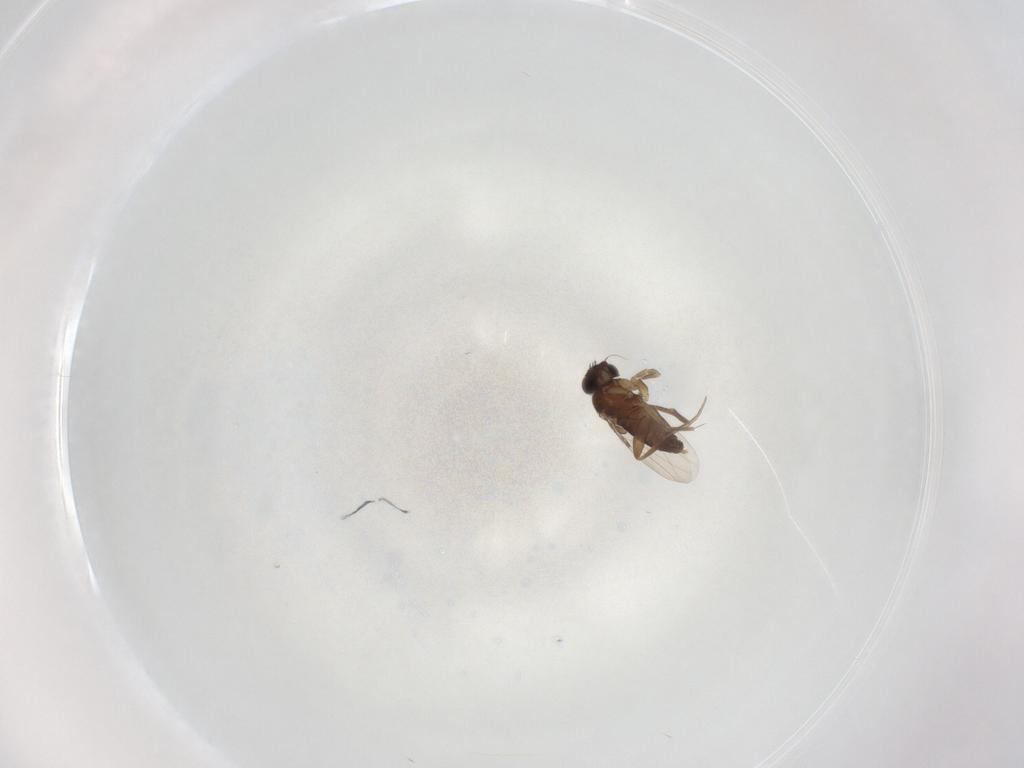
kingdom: Animalia
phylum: Arthropoda
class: Insecta
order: Diptera
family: Phoridae
